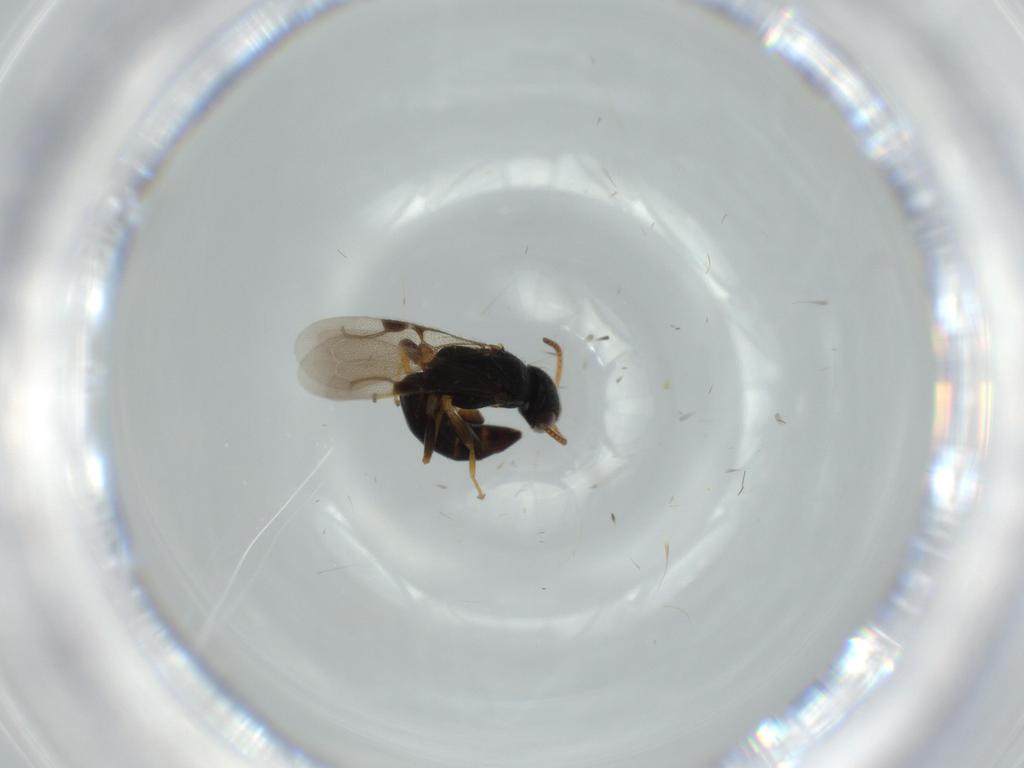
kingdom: Animalia
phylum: Arthropoda
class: Insecta
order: Hymenoptera
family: Bethylidae
